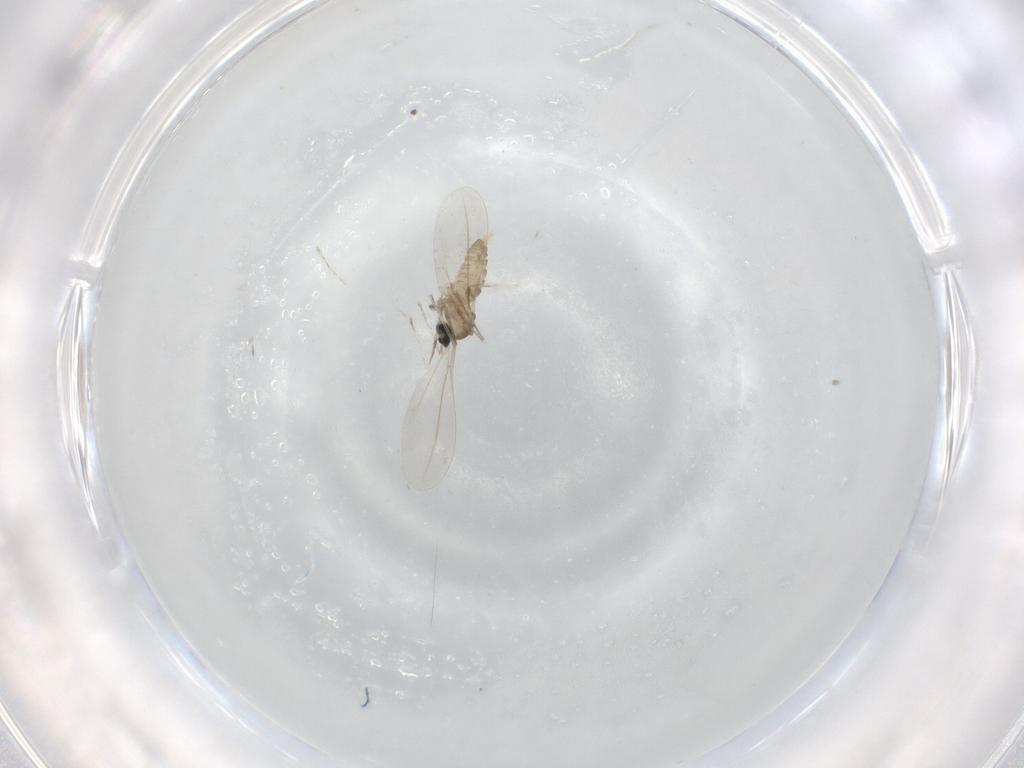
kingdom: Animalia
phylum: Arthropoda
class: Insecta
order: Diptera
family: Cecidomyiidae
